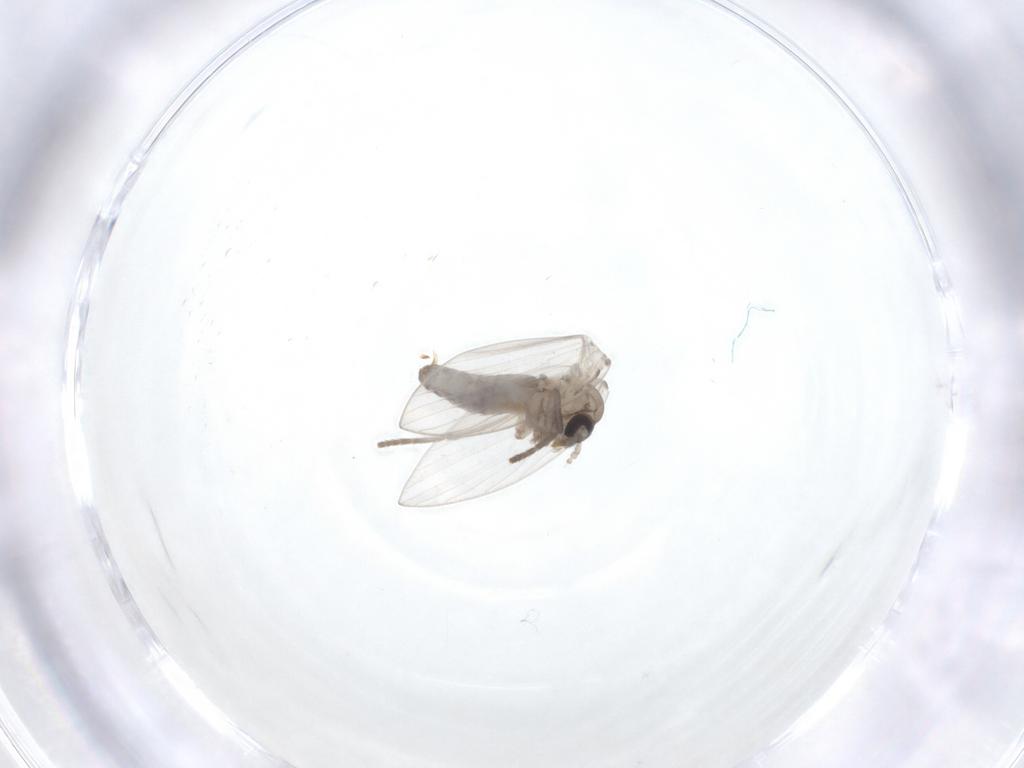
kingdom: Animalia
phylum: Arthropoda
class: Insecta
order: Diptera
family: Psychodidae
